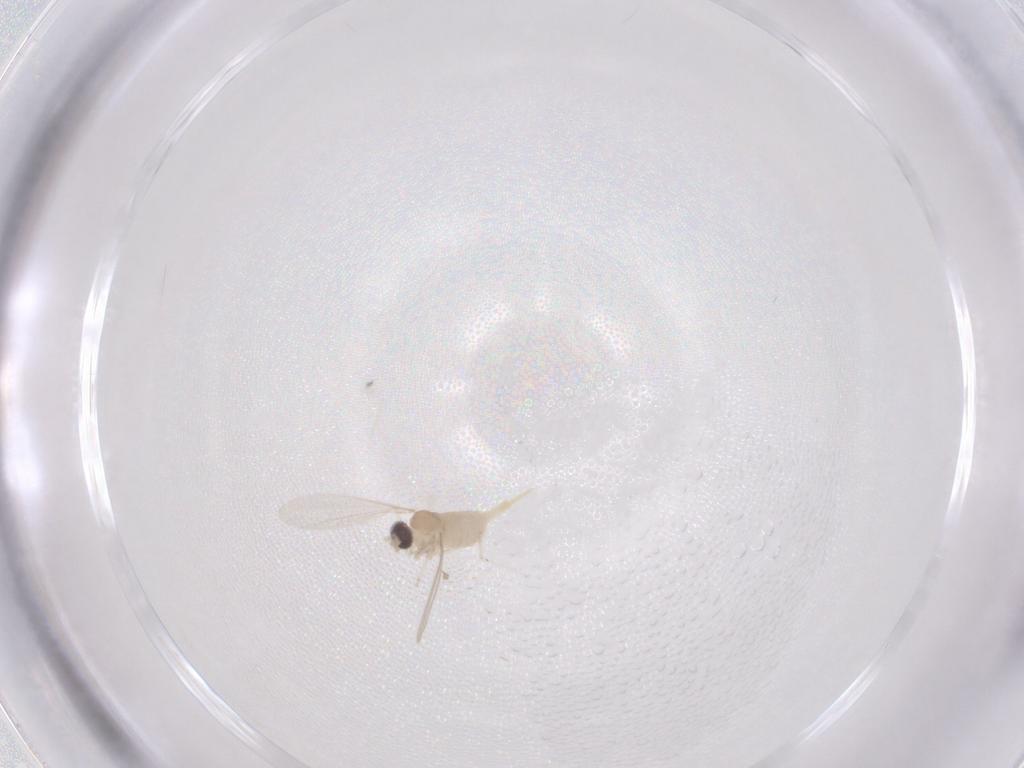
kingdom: Animalia
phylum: Arthropoda
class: Insecta
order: Diptera
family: Cecidomyiidae
